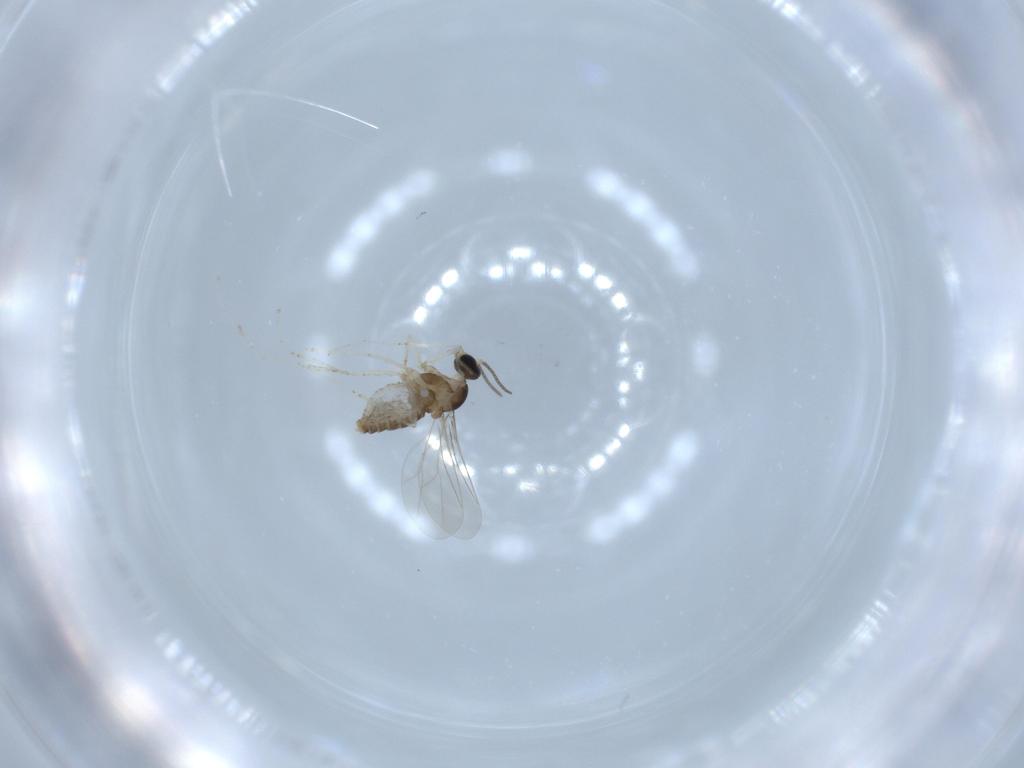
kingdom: Animalia
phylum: Arthropoda
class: Insecta
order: Diptera
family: Cecidomyiidae
